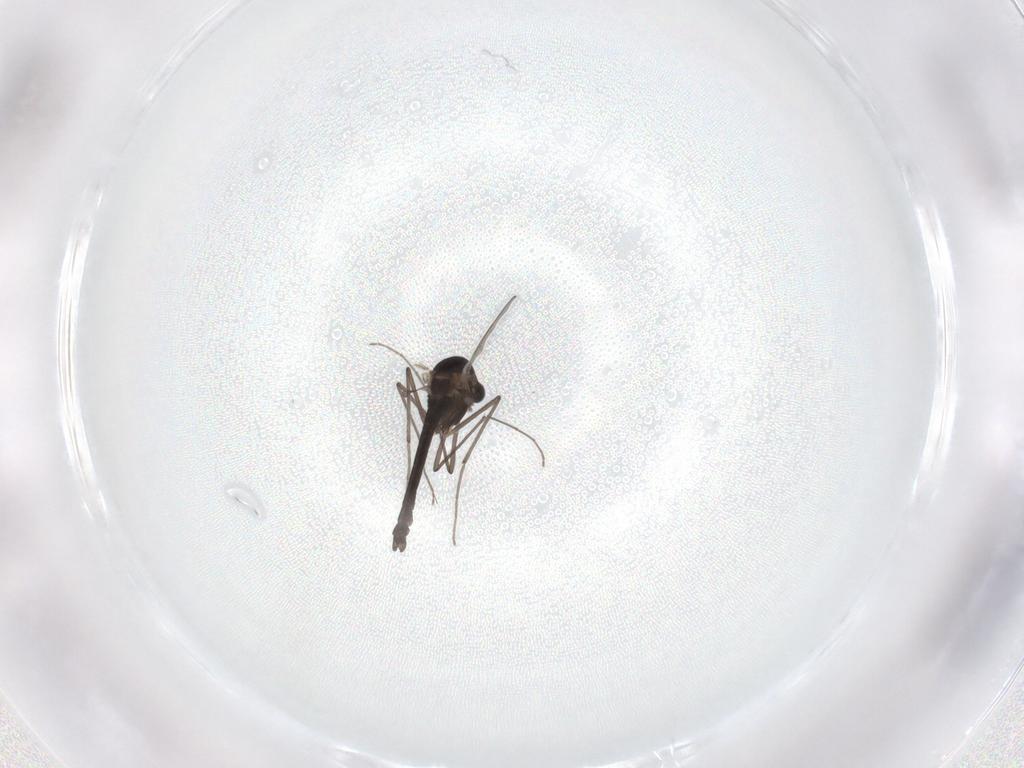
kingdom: Animalia
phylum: Arthropoda
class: Insecta
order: Diptera
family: Chironomidae
